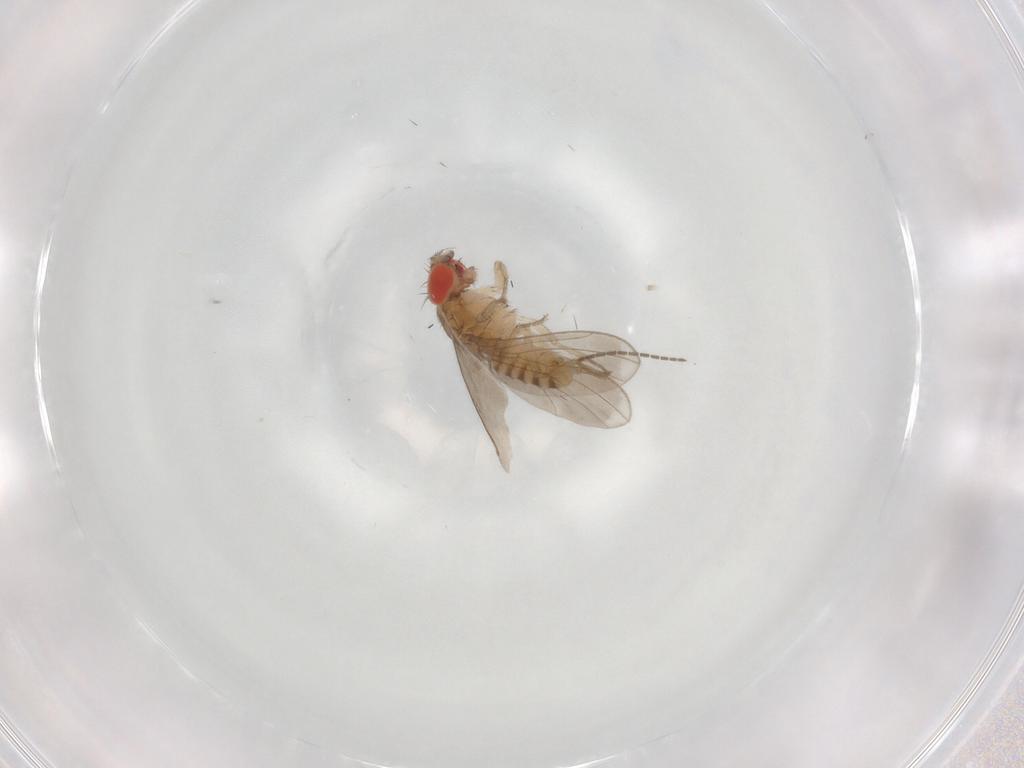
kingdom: Animalia
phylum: Arthropoda
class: Insecta
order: Diptera
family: Drosophilidae
